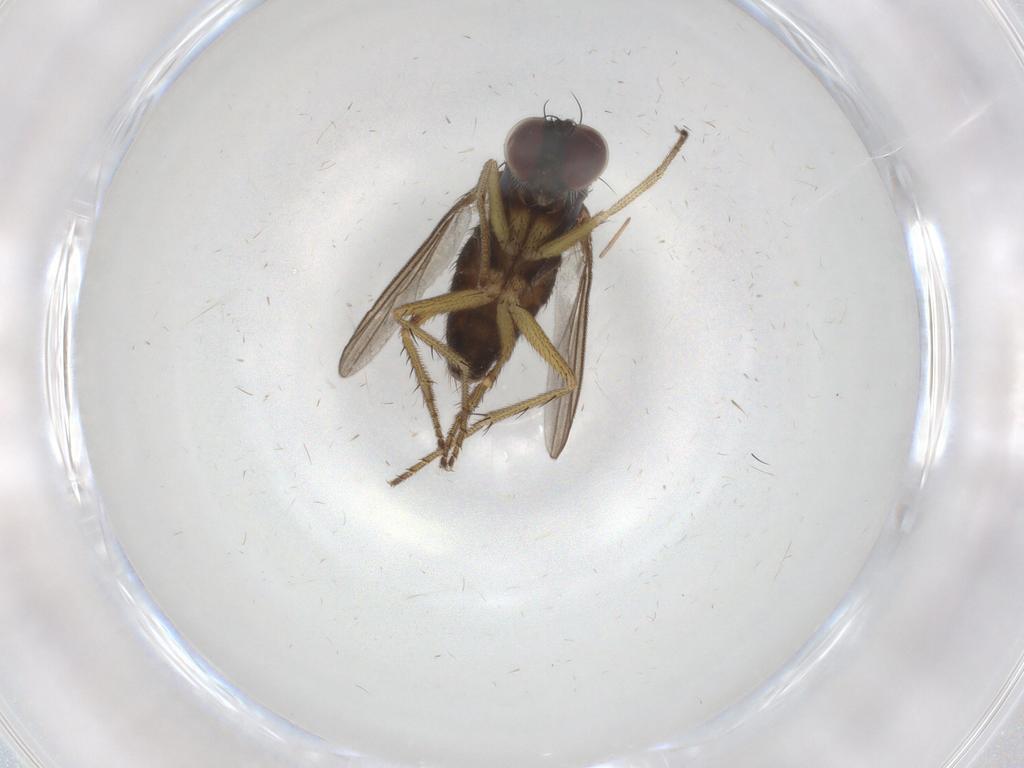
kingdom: Animalia
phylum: Arthropoda
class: Insecta
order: Diptera
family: Dolichopodidae
